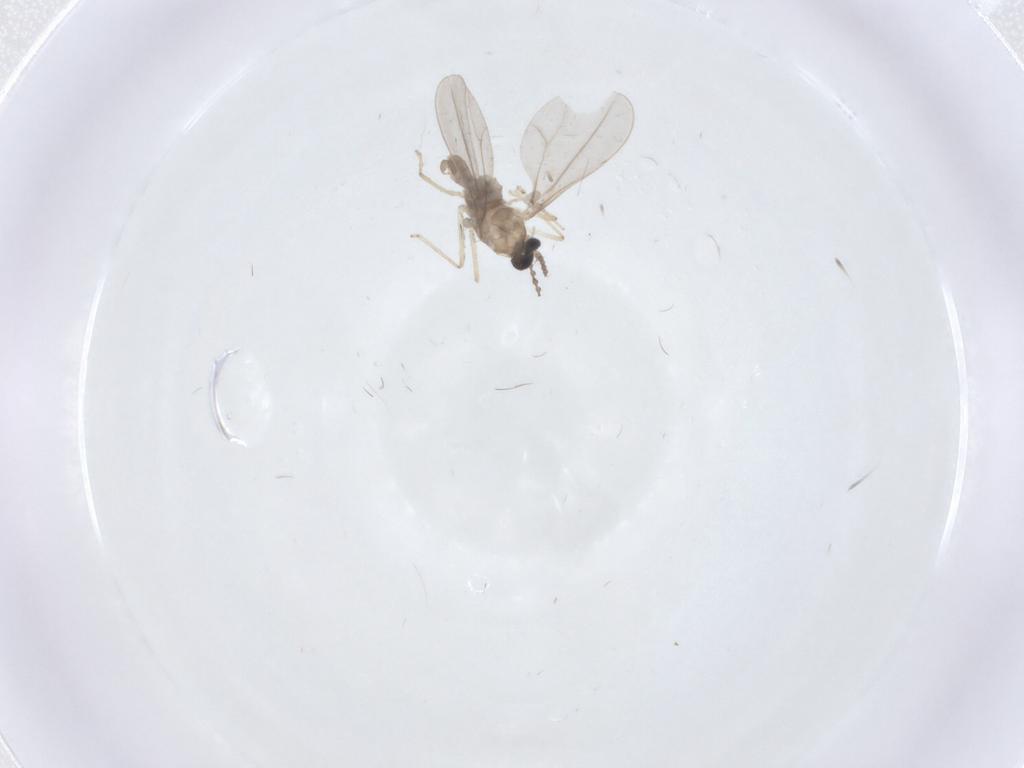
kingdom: Animalia
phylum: Arthropoda
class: Insecta
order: Diptera
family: Cecidomyiidae
